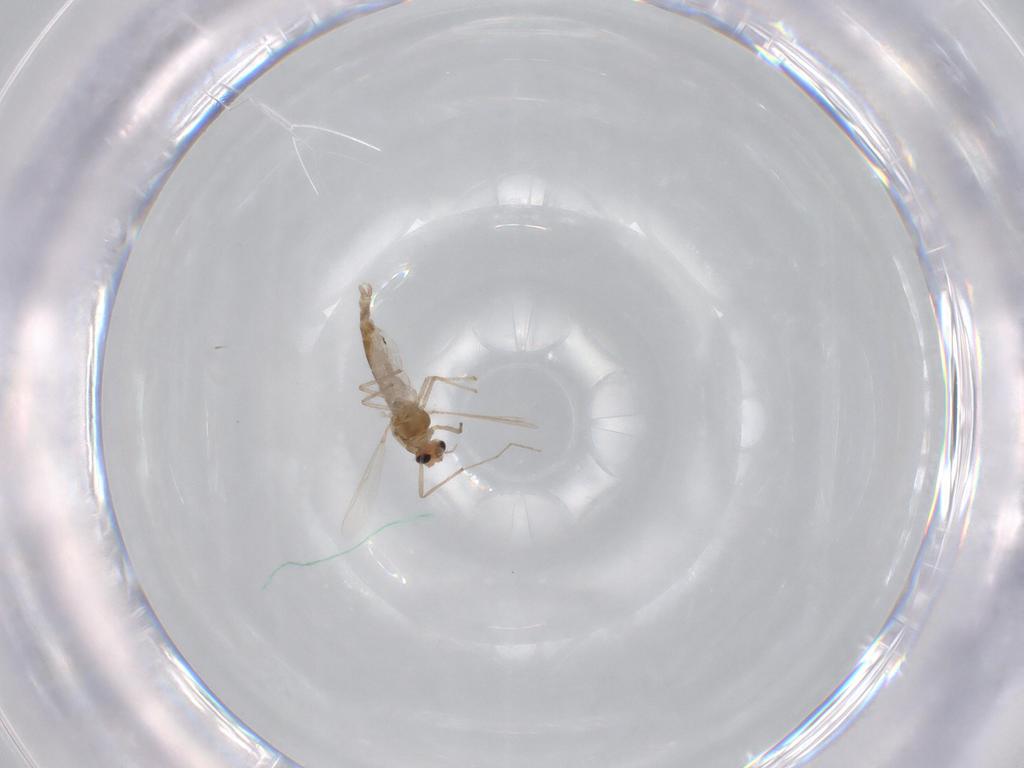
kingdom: Animalia
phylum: Arthropoda
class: Insecta
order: Diptera
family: Chironomidae
